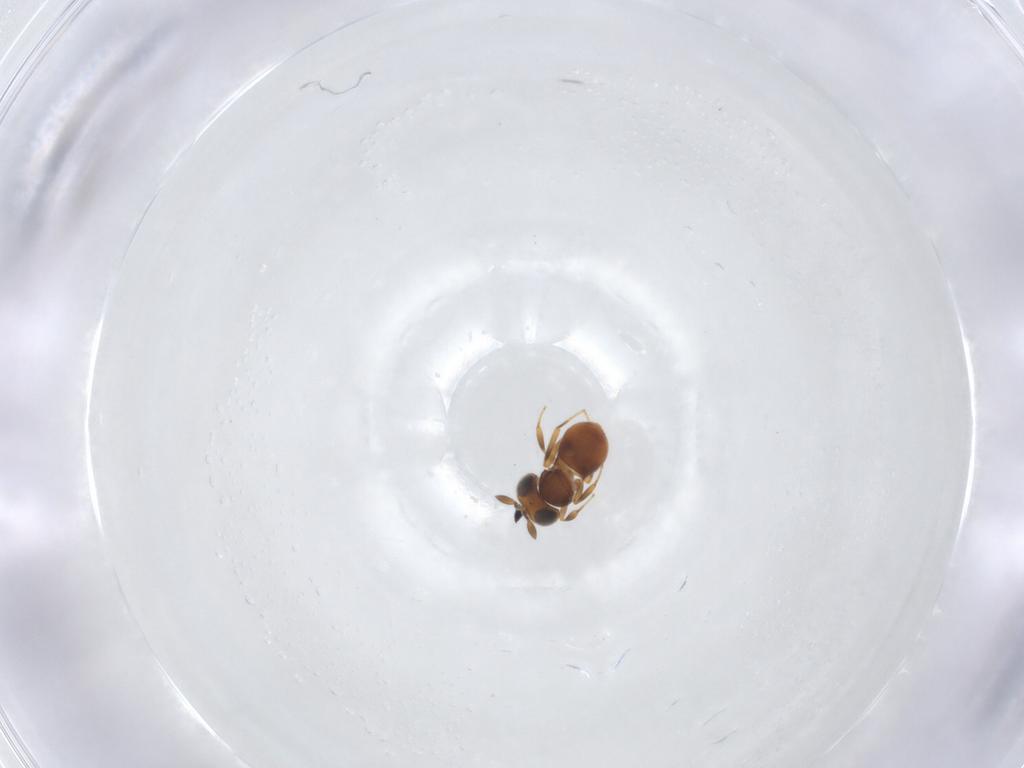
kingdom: Animalia
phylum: Arthropoda
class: Insecta
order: Hymenoptera
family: Scelionidae
